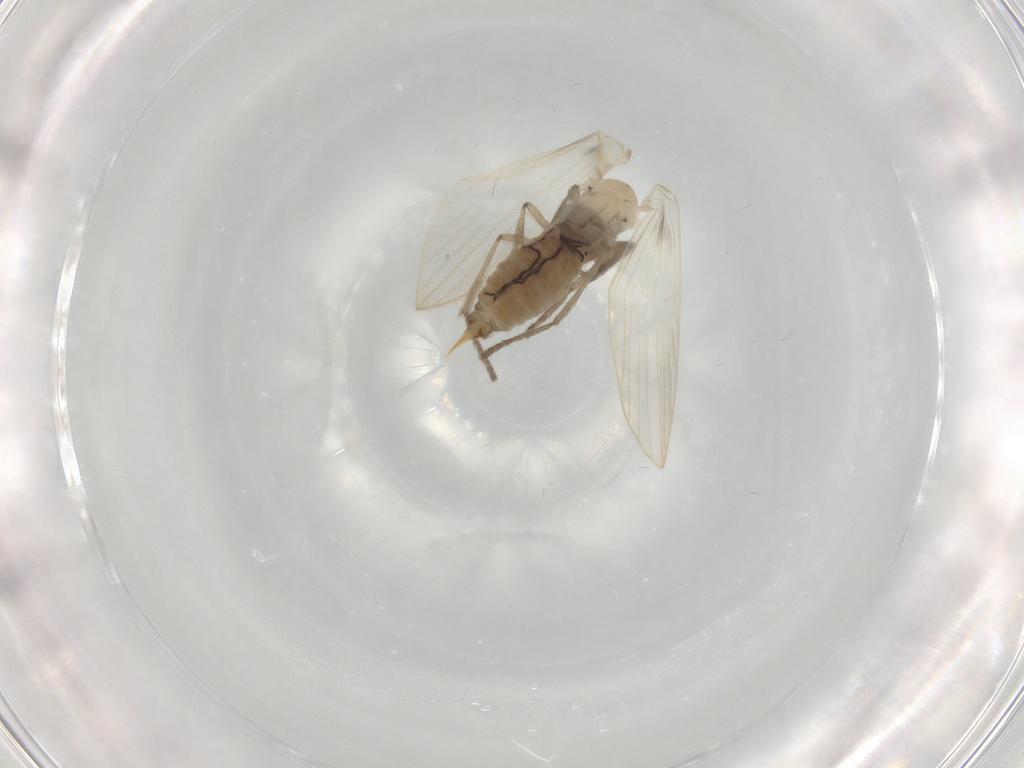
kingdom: Animalia
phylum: Arthropoda
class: Insecta
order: Diptera
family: Psychodidae
